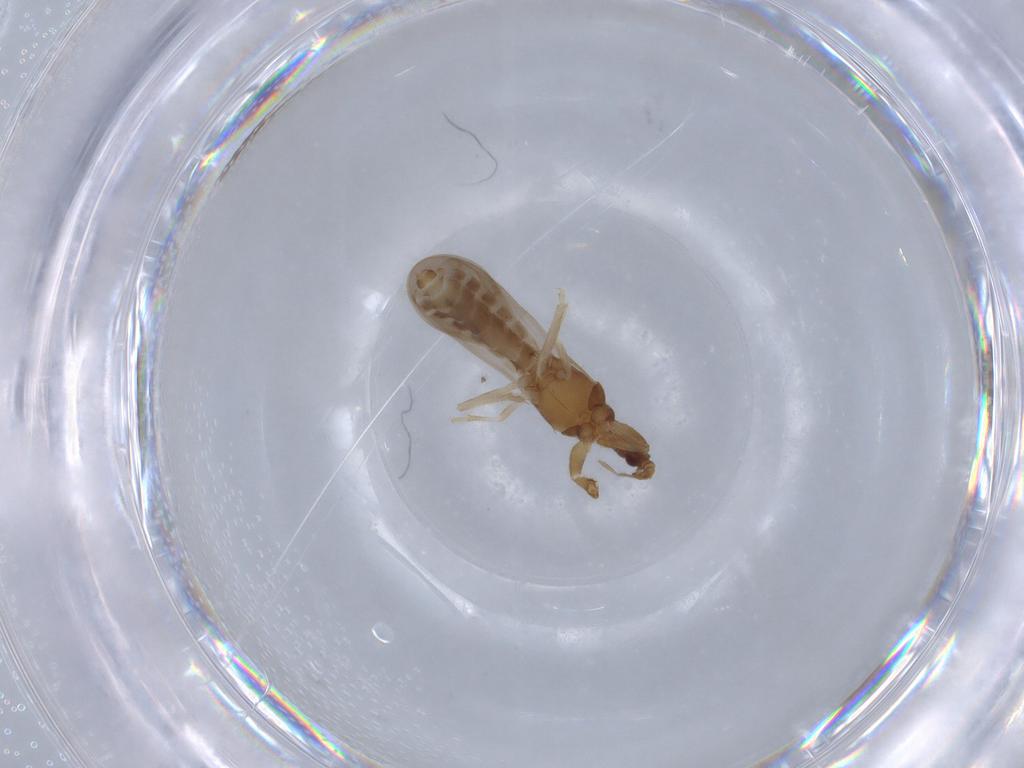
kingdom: Animalia
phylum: Arthropoda
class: Insecta
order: Hemiptera
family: Enicocephalidae
